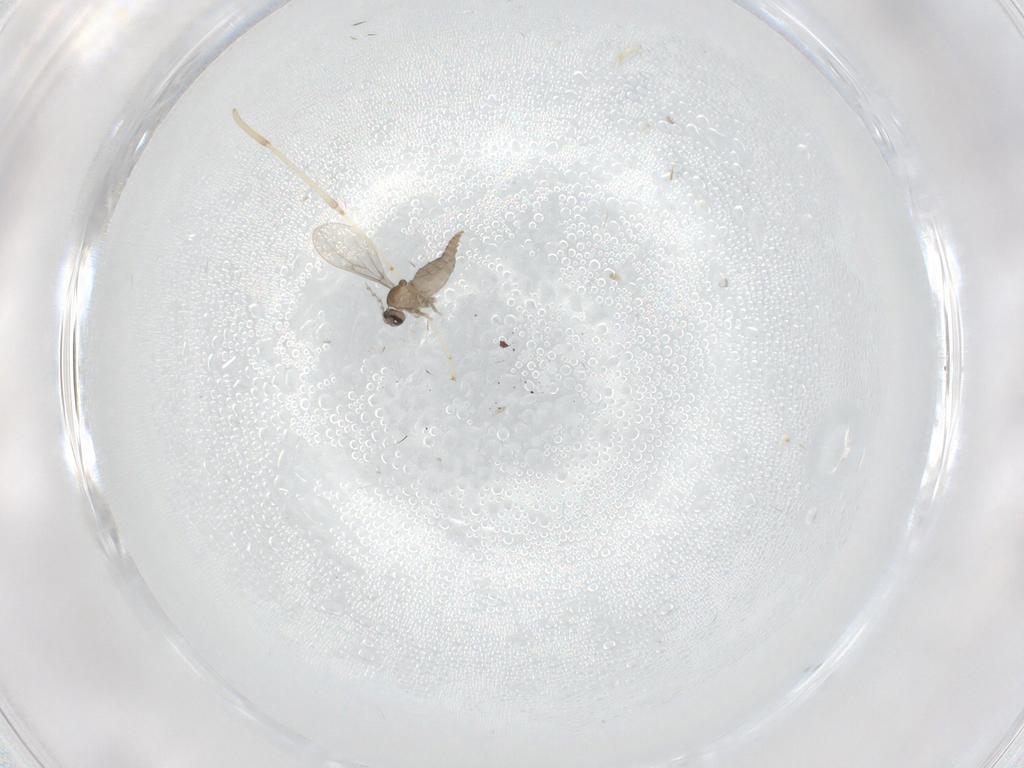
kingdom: Animalia
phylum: Arthropoda
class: Insecta
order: Diptera
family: Cecidomyiidae
